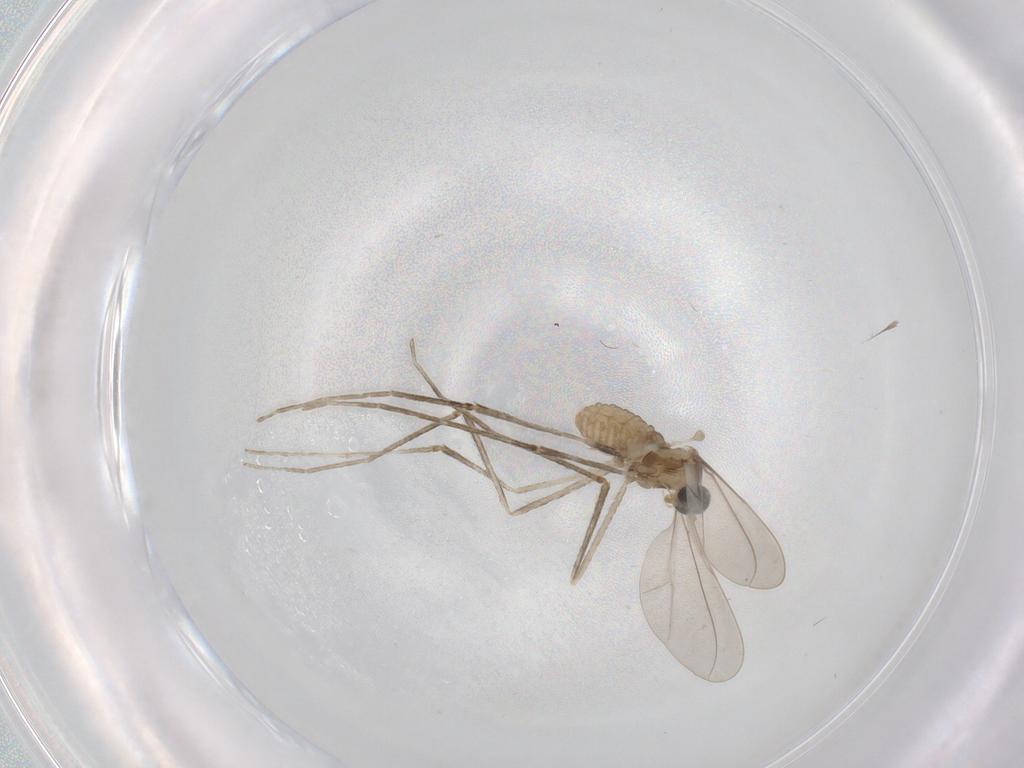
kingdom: Animalia
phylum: Arthropoda
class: Insecta
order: Diptera
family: Cecidomyiidae
